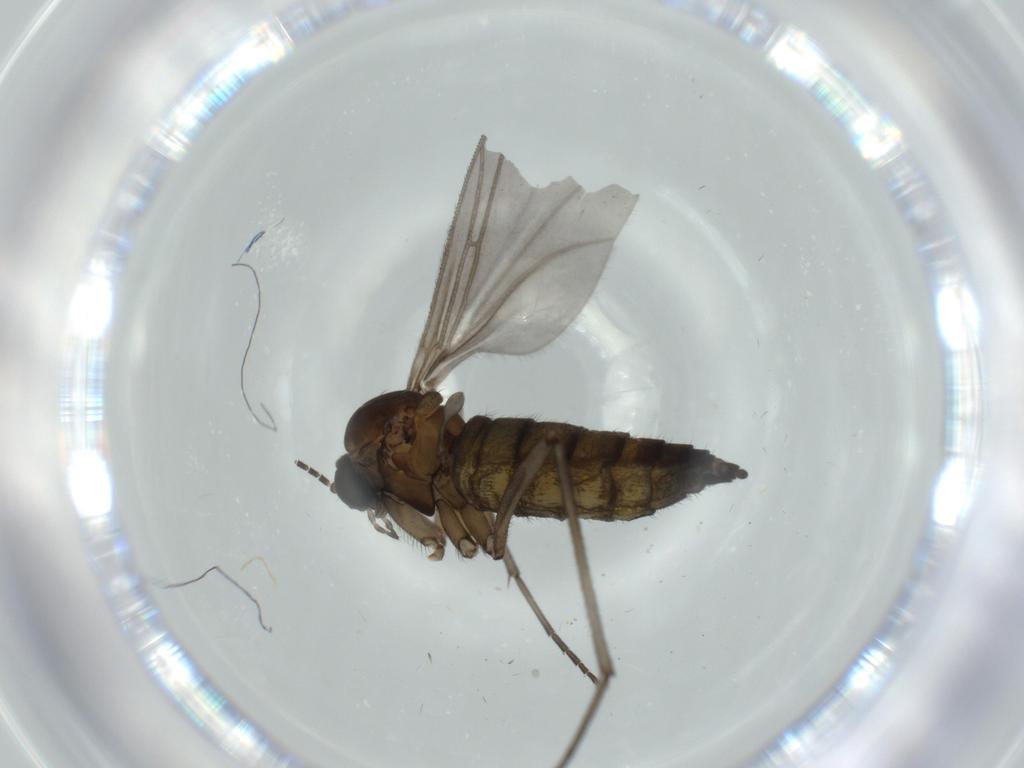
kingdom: Animalia
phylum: Arthropoda
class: Insecta
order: Diptera
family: Sciaridae
